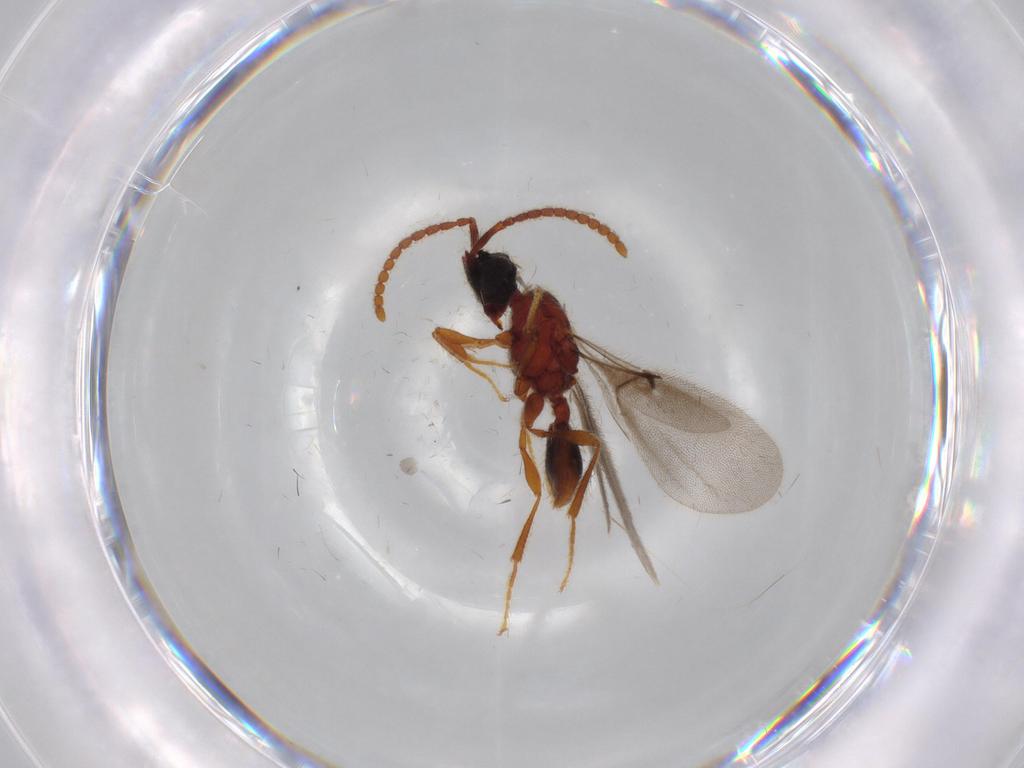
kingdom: Animalia
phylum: Arthropoda
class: Insecta
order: Hymenoptera
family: Diapriidae
